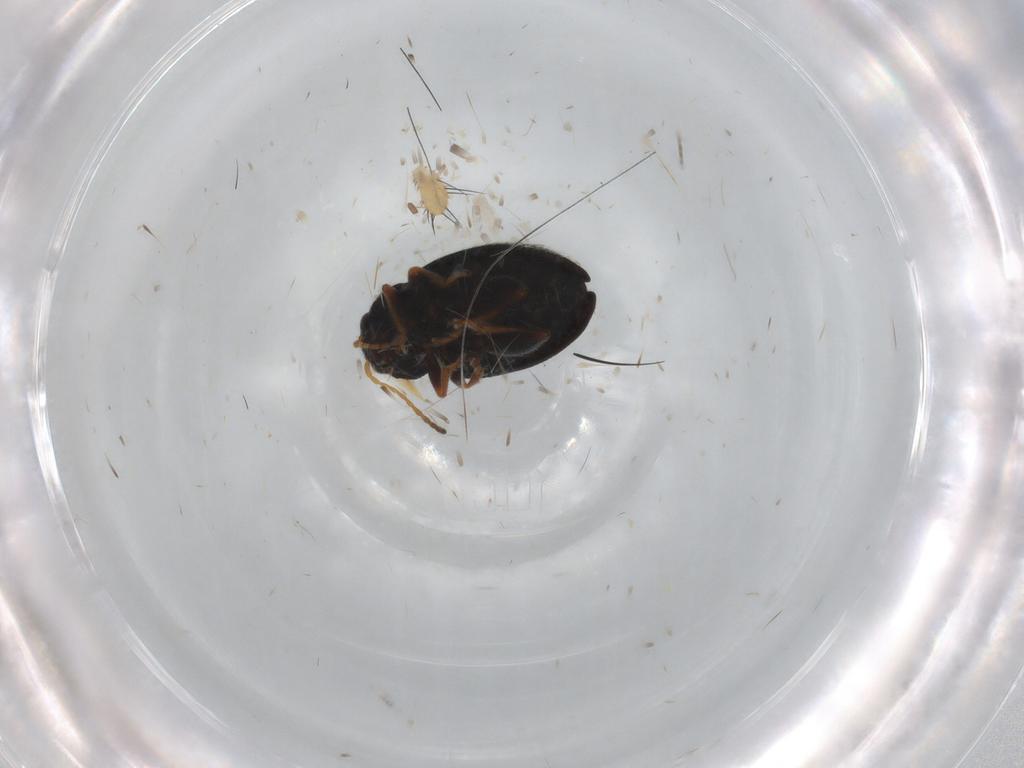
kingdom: Animalia
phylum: Arthropoda
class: Insecta
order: Coleoptera
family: Chrysomelidae
